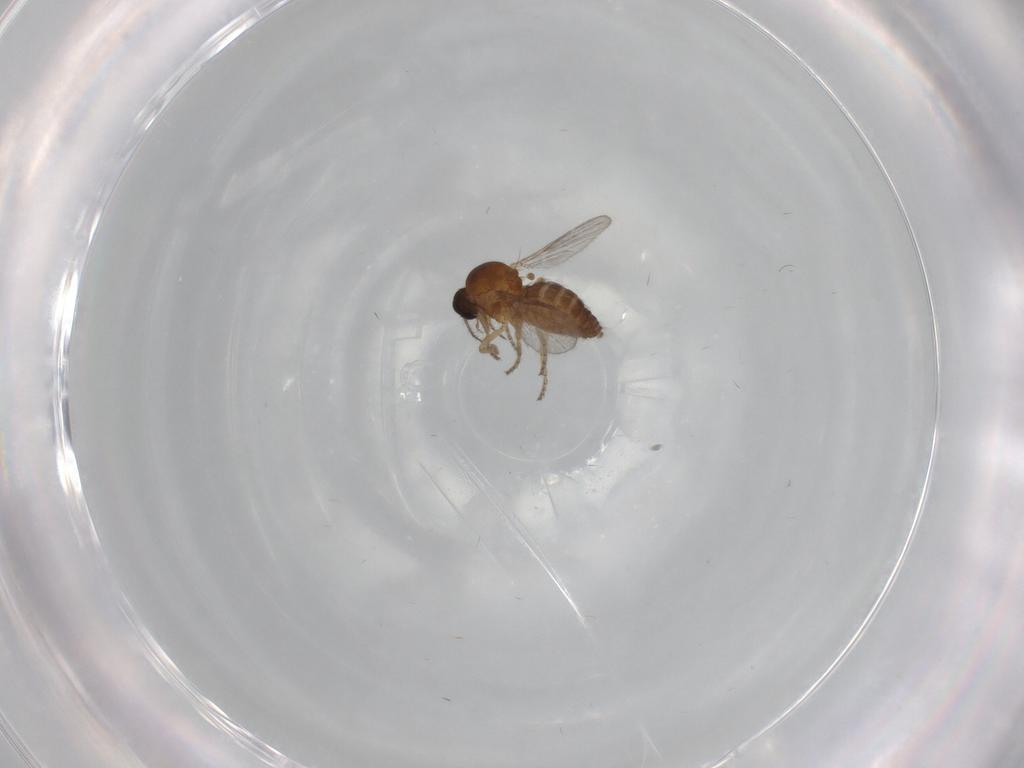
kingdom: Animalia
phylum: Arthropoda
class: Insecta
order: Diptera
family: Ceratopogonidae
